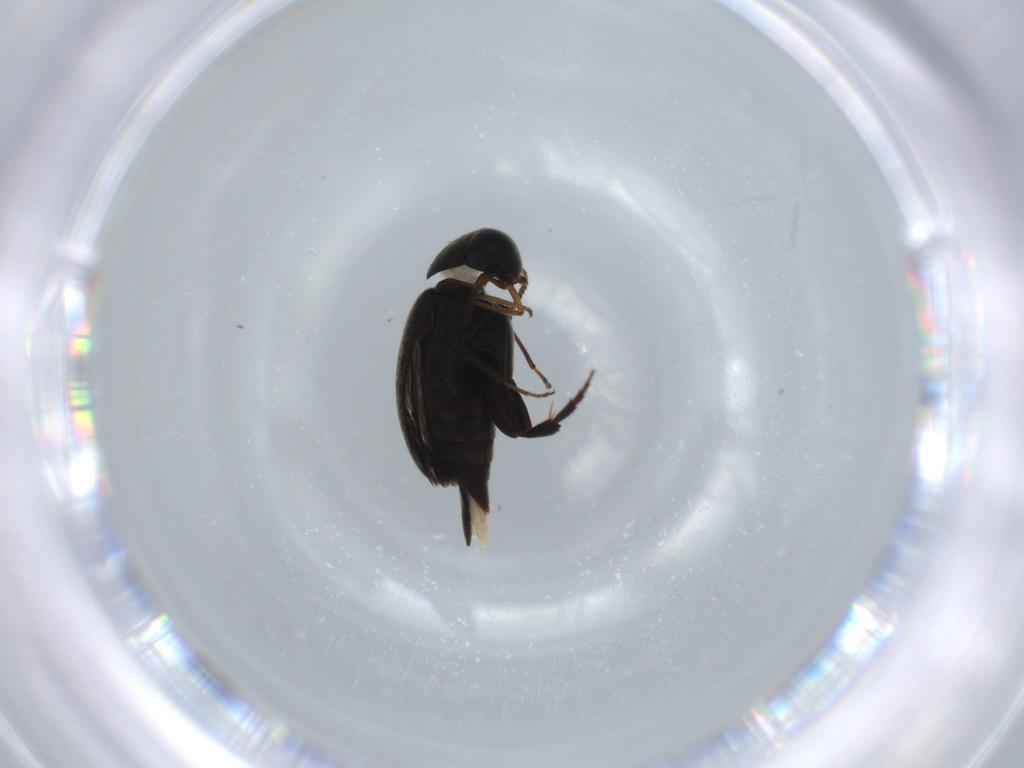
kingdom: Animalia
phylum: Arthropoda
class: Insecta
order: Coleoptera
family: Mordellidae
